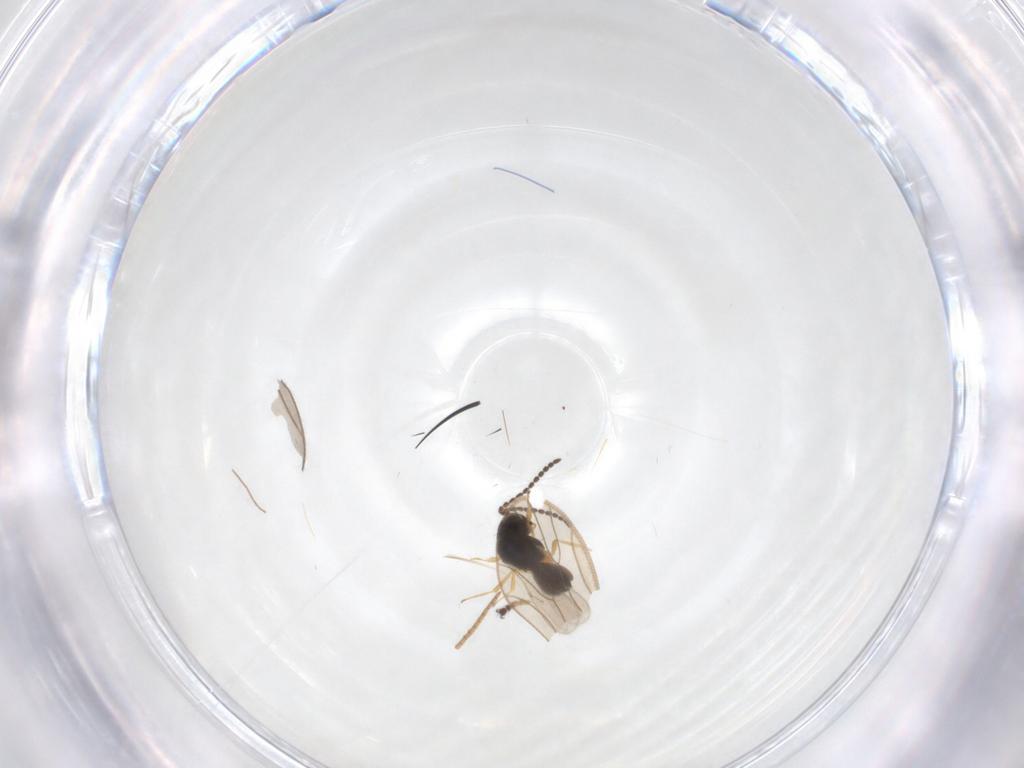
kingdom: Animalia
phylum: Arthropoda
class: Insecta
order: Hymenoptera
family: Scelionidae
